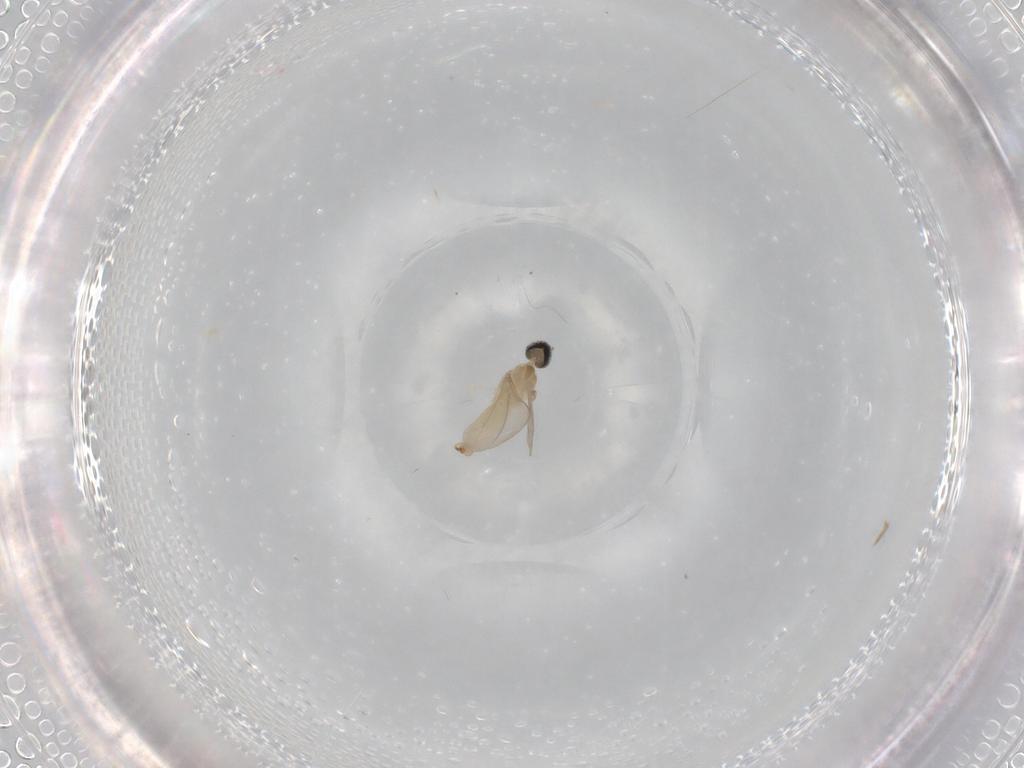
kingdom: Animalia
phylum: Arthropoda
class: Insecta
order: Diptera
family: Cecidomyiidae
